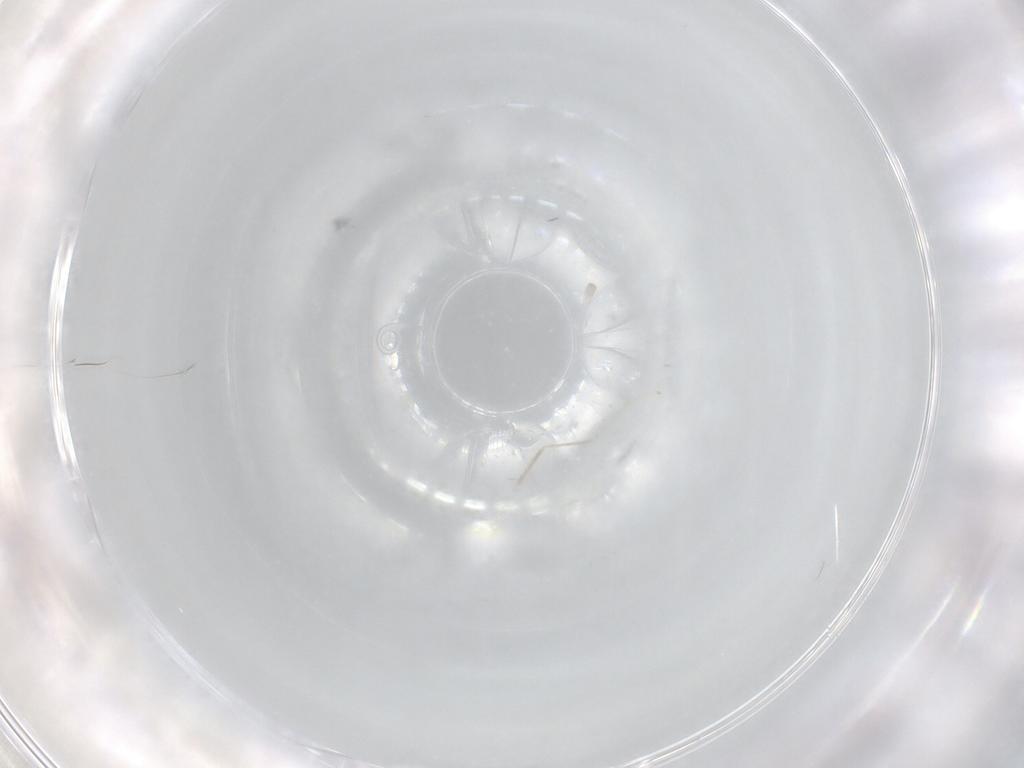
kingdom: Animalia
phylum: Arthropoda
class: Insecta
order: Diptera
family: Cecidomyiidae
